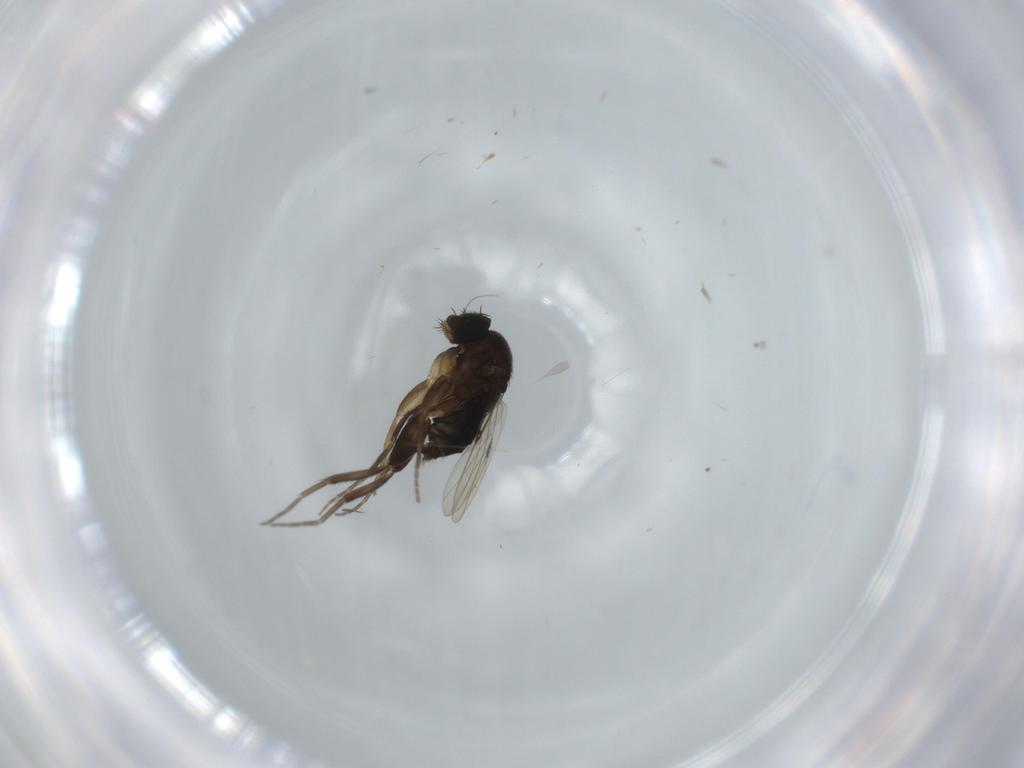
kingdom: Animalia
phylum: Arthropoda
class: Insecta
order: Diptera
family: Phoridae
